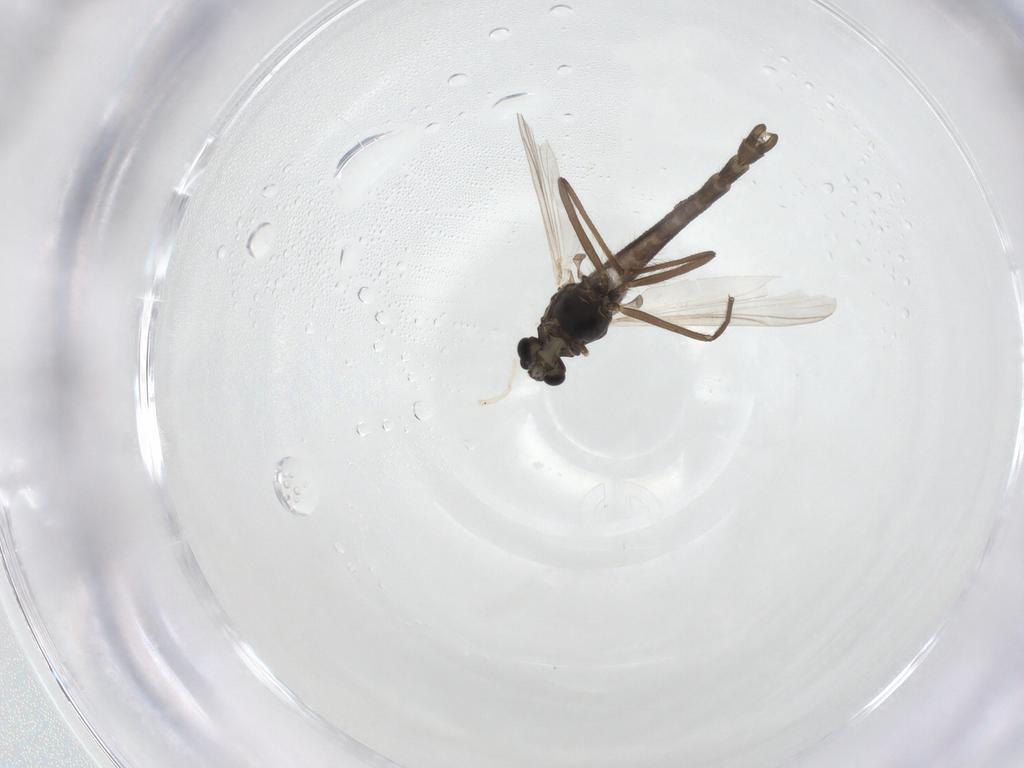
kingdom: Animalia
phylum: Arthropoda
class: Insecta
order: Diptera
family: Chironomidae
